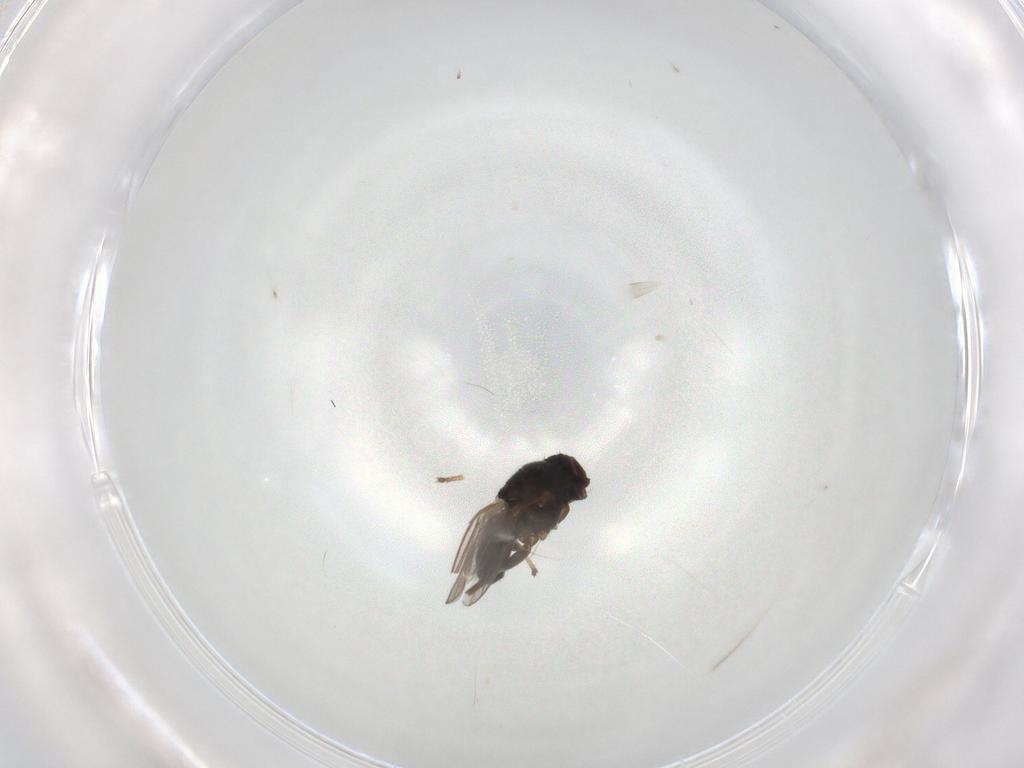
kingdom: Animalia
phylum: Arthropoda
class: Insecta
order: Diptera
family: Chloropidae
